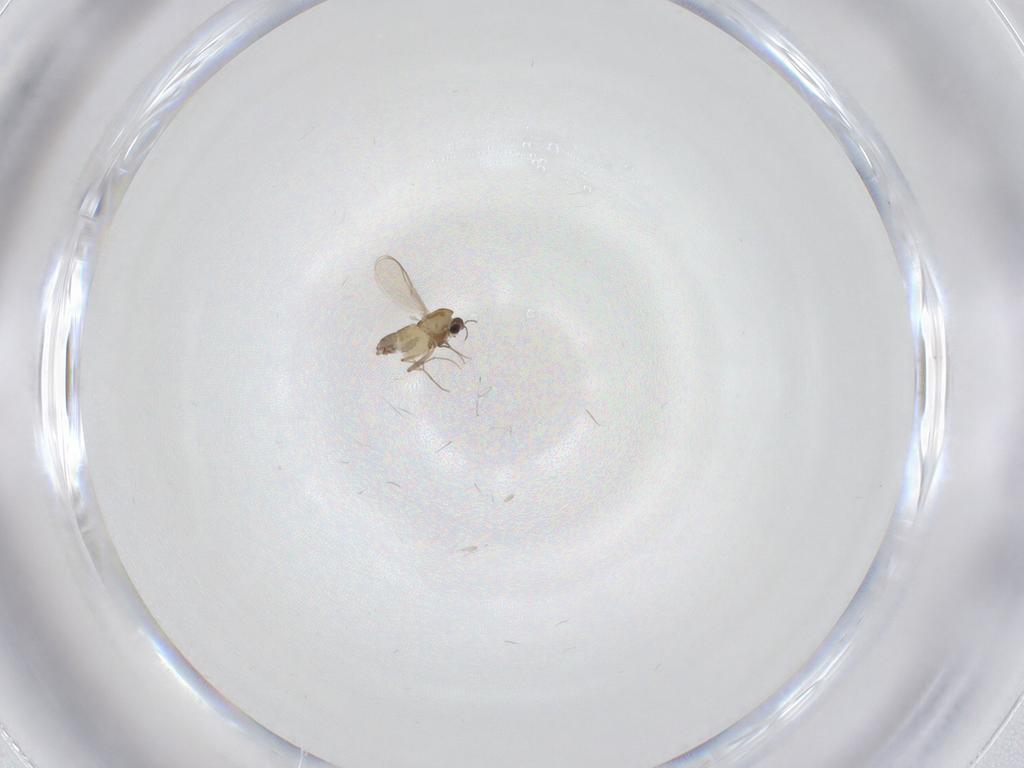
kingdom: Animalia
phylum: Arthropoda
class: Insecta
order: Diptera
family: Chironomidae
